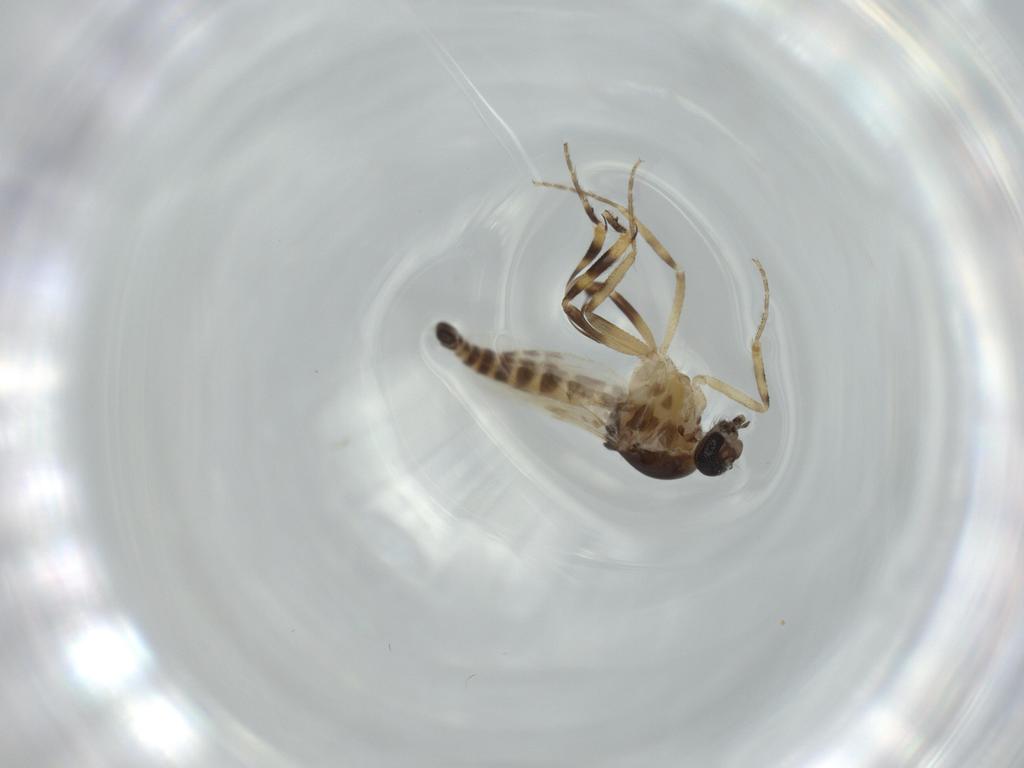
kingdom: Animalia
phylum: Arthropoda
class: Insecta
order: Diptera
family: Ceratopogonidae
